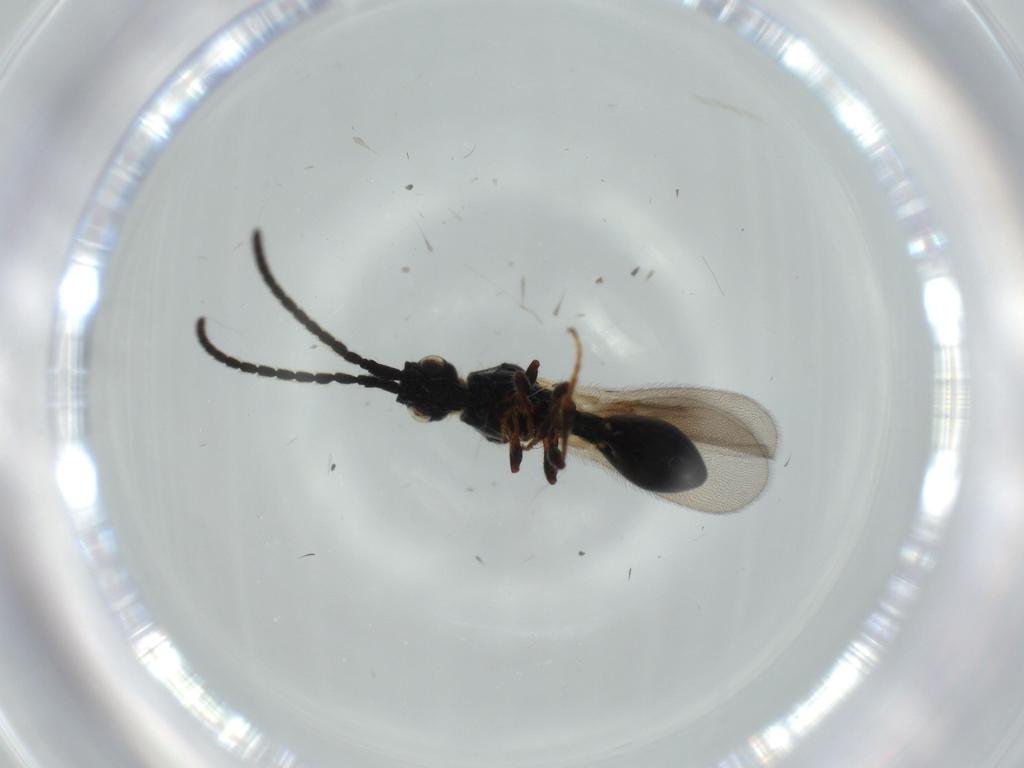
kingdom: Animalia
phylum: Arthropoda
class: Insecta
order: Hymenoptera
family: Diapriidae
